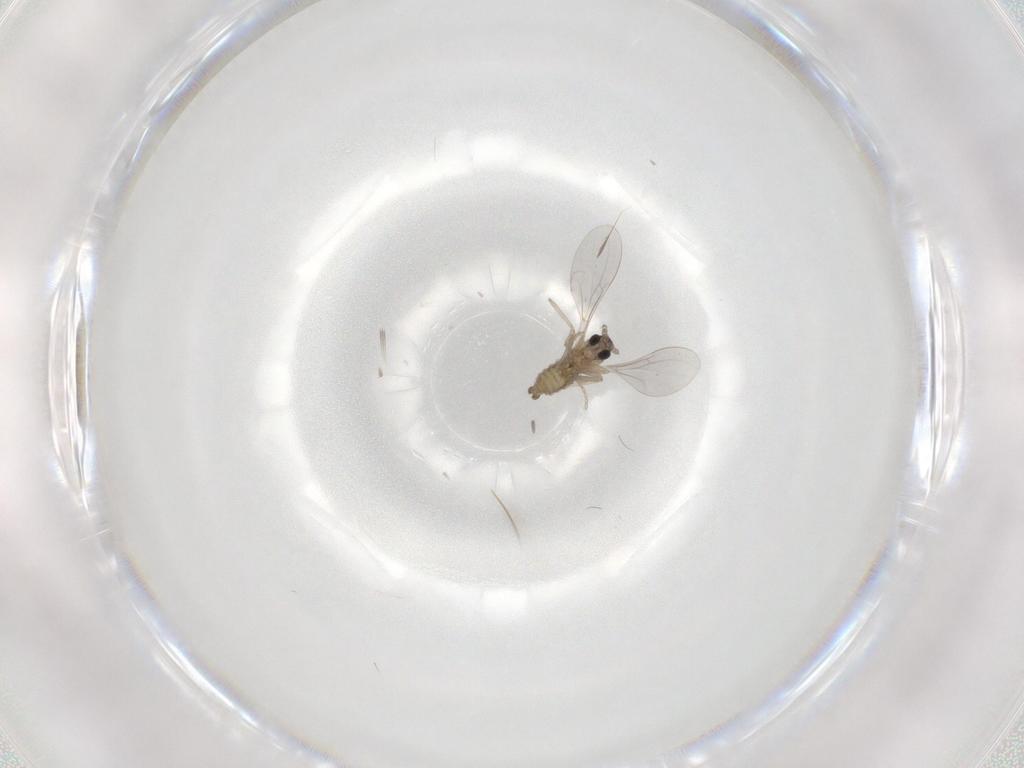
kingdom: Animalia
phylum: Arthropoda
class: Insecta
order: Diptera
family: Cecidomyiidae
